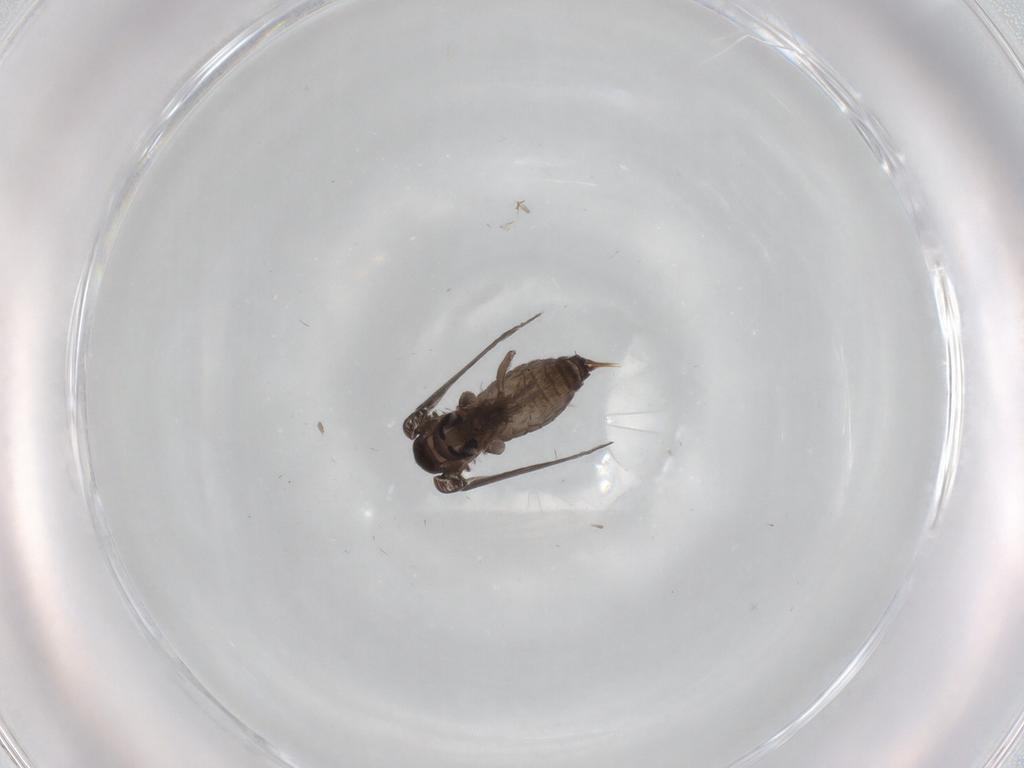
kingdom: Animalia
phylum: Arthropoda
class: Insecta
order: Diptera
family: Psychodidae
